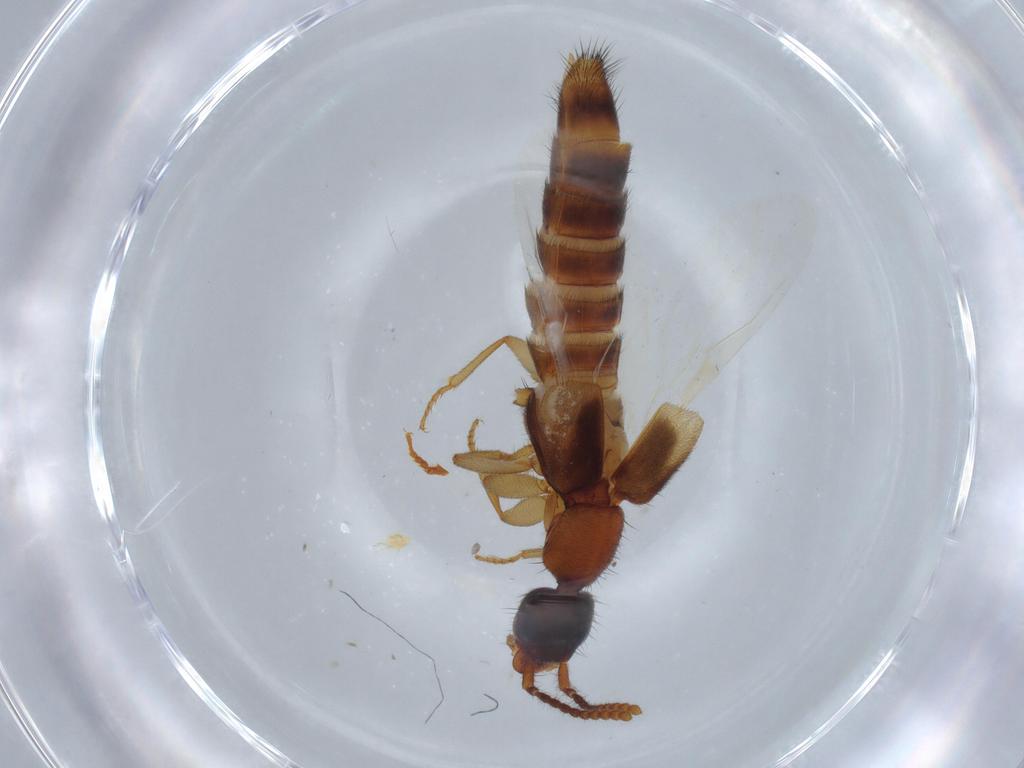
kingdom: Animalia
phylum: Arthropoda
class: Insecta
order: Coleoptera
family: Staphylinidae
